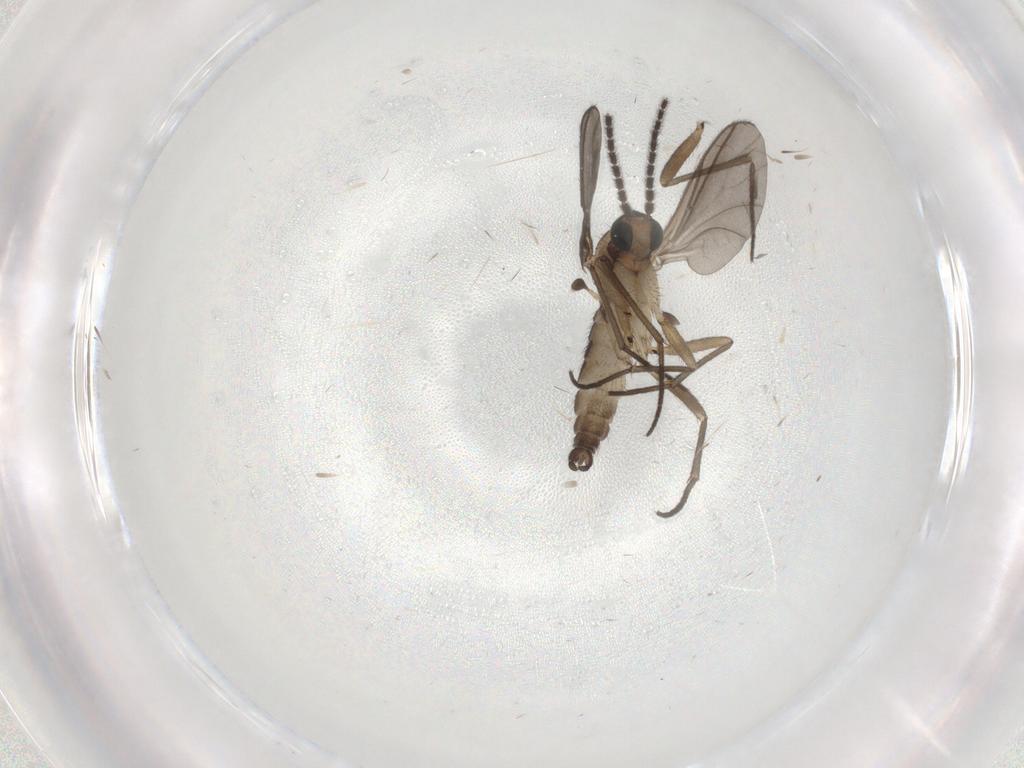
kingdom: Animalia
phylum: Arthropoda
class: Insecta
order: Diptera
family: Sciaridae
